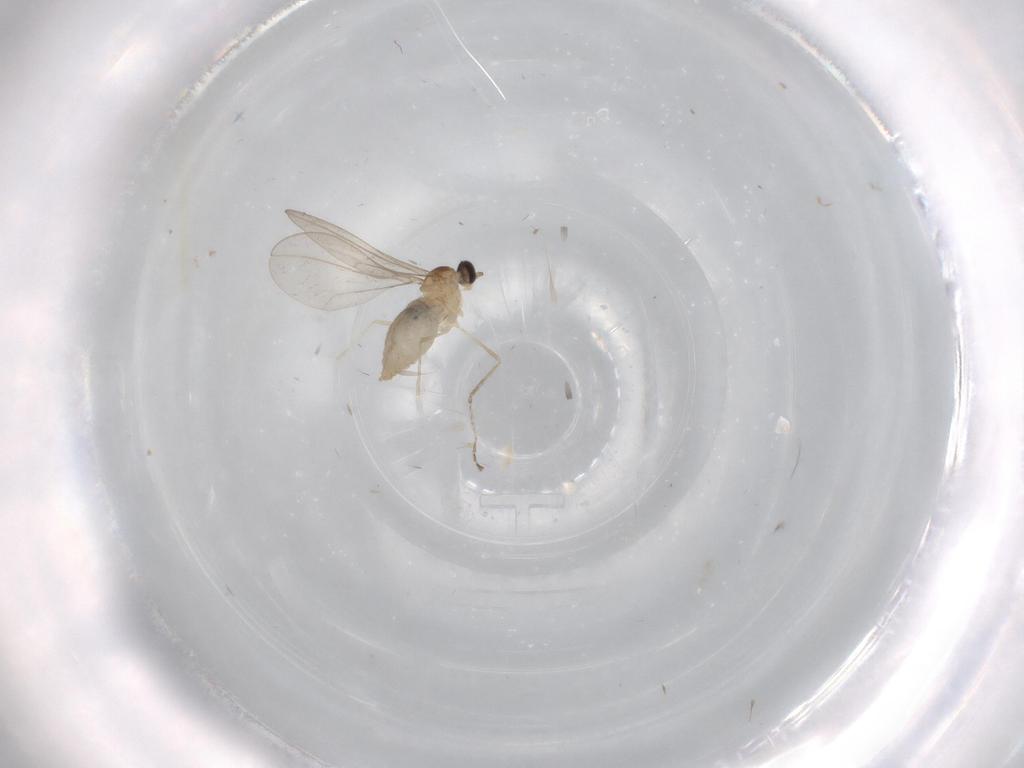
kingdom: Animalia
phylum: Arthropoda
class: Insecta
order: Diptera
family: Cecidomyiidae
